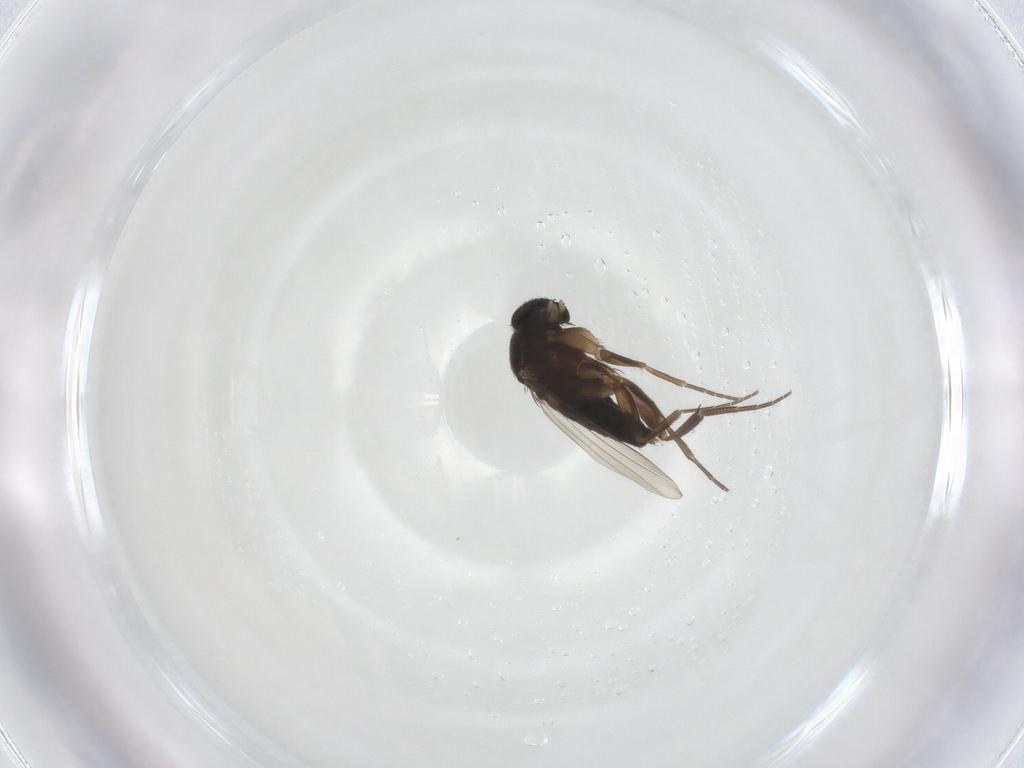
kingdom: Animalia
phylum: Arthropoda
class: Insecta
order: Diptera
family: Phoridae
